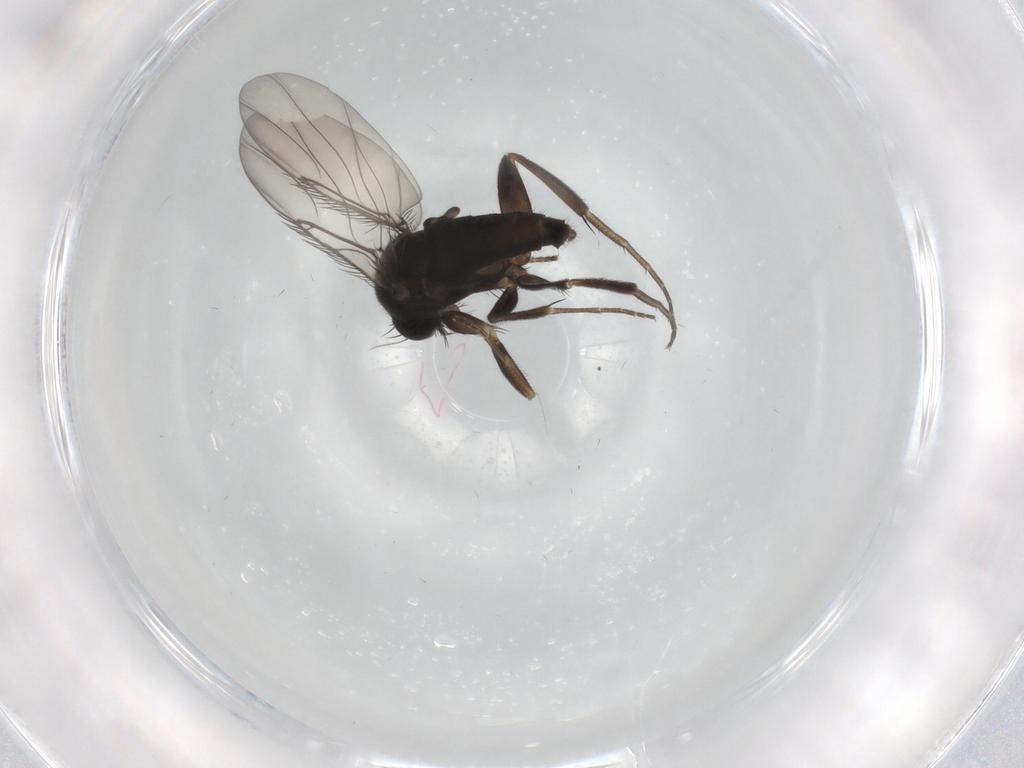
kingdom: Animalia
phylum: Arthropoda
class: Insecta
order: Diptera
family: Phoridae
